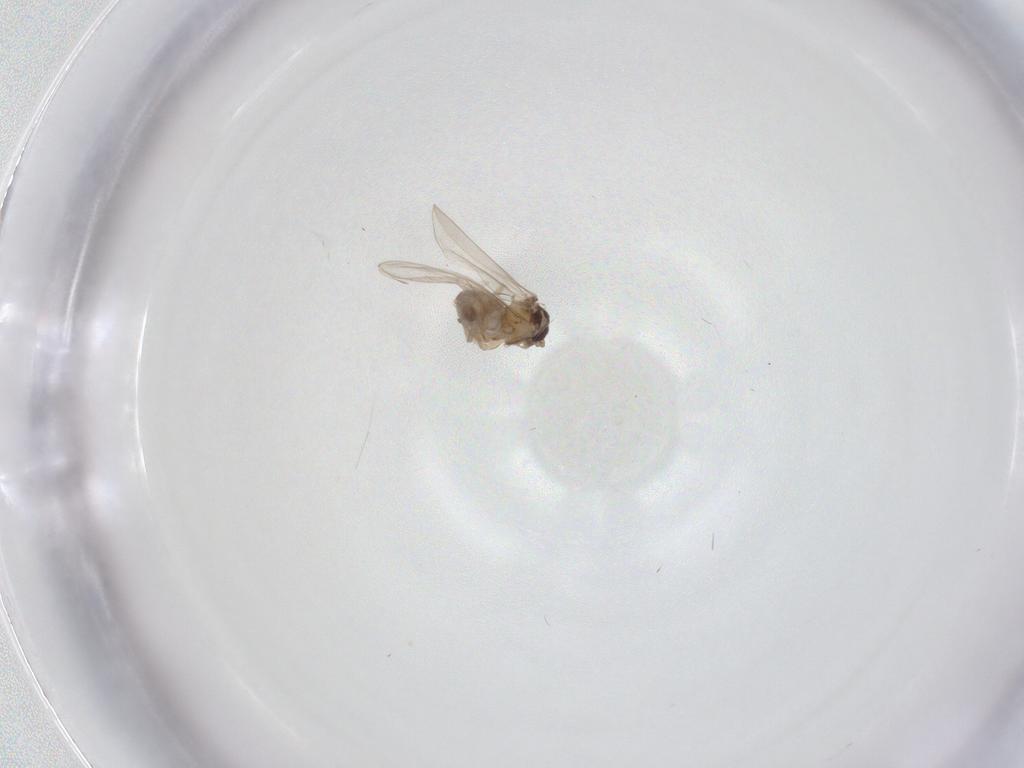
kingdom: Animalia
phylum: Arthropoda
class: Insecta
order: Diptera
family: Cecidomyiidae
